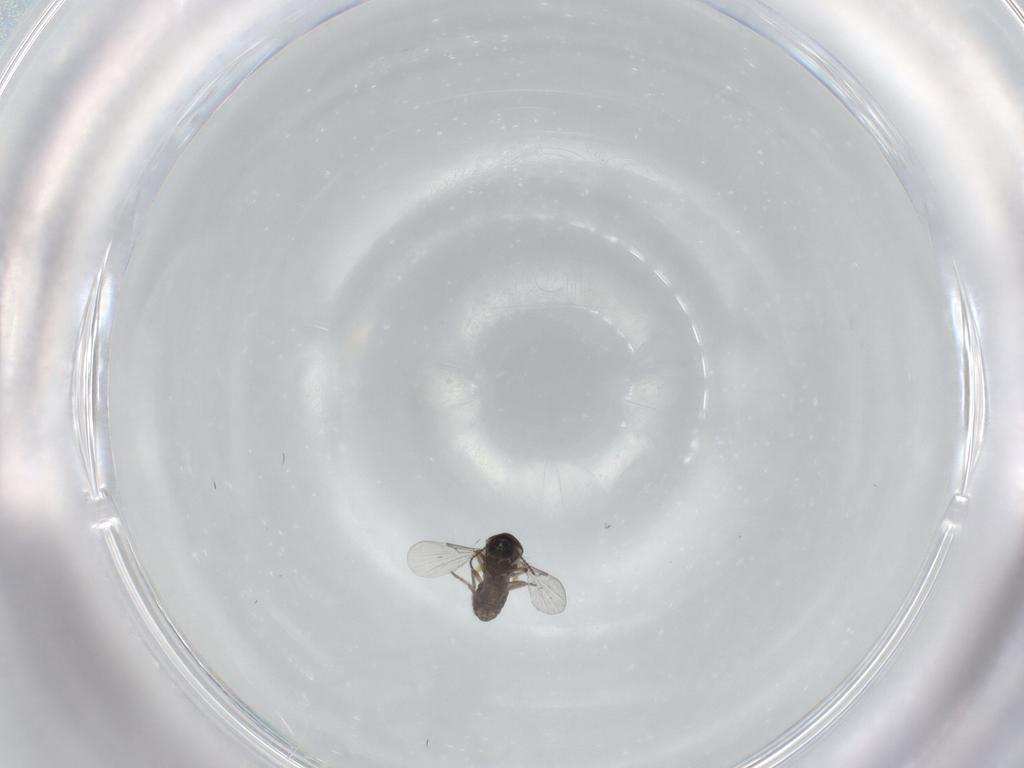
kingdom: Animalia
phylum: Arthropoda
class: Insecta
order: Diptera
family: Ceratopogonidae
